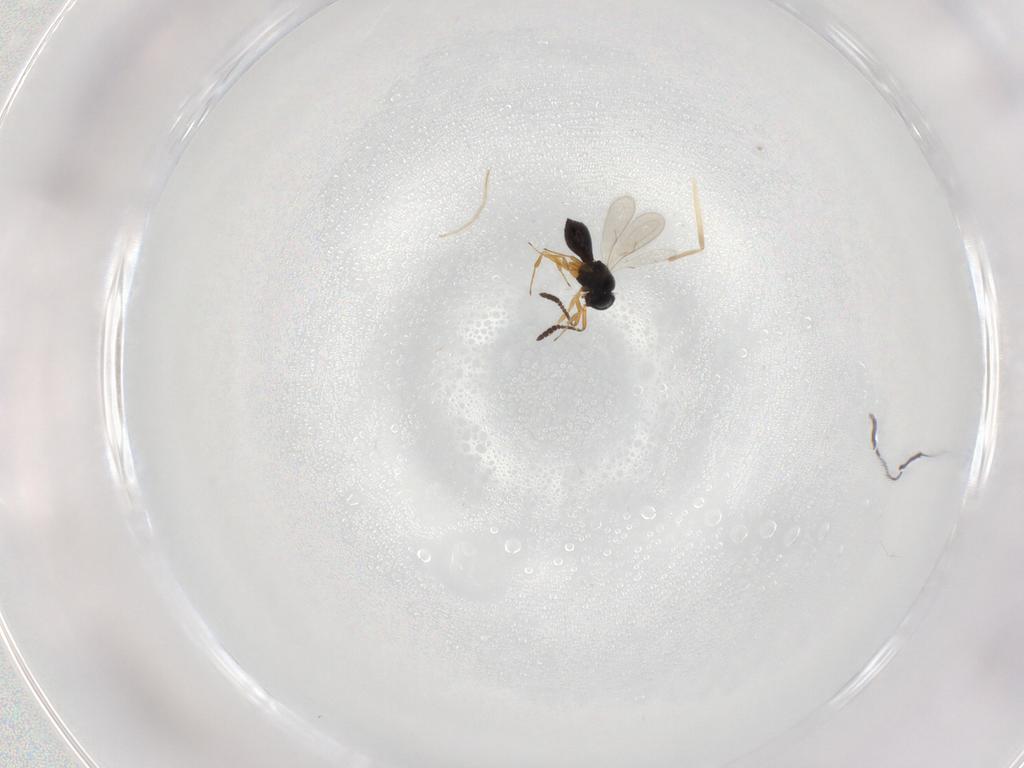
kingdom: Animalia
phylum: Arthropoda
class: Insecta
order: Hymenoptera
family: Scelionidae
